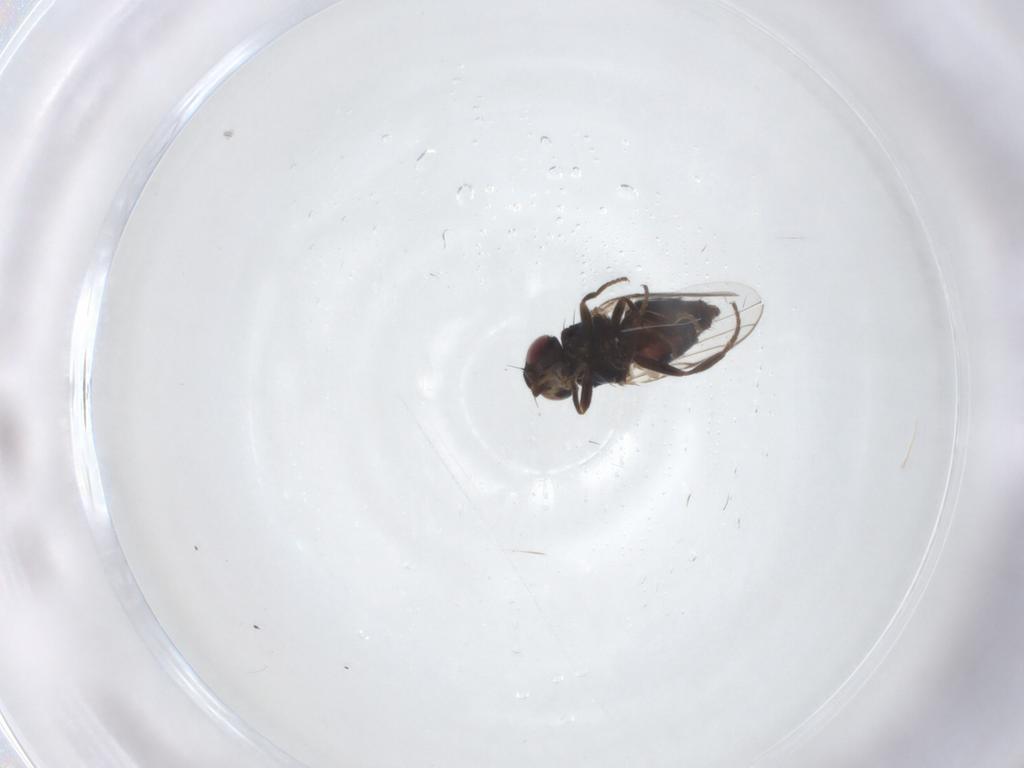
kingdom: Animalia
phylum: Arthropoda
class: Insecta
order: Diptera
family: Chloropidae
